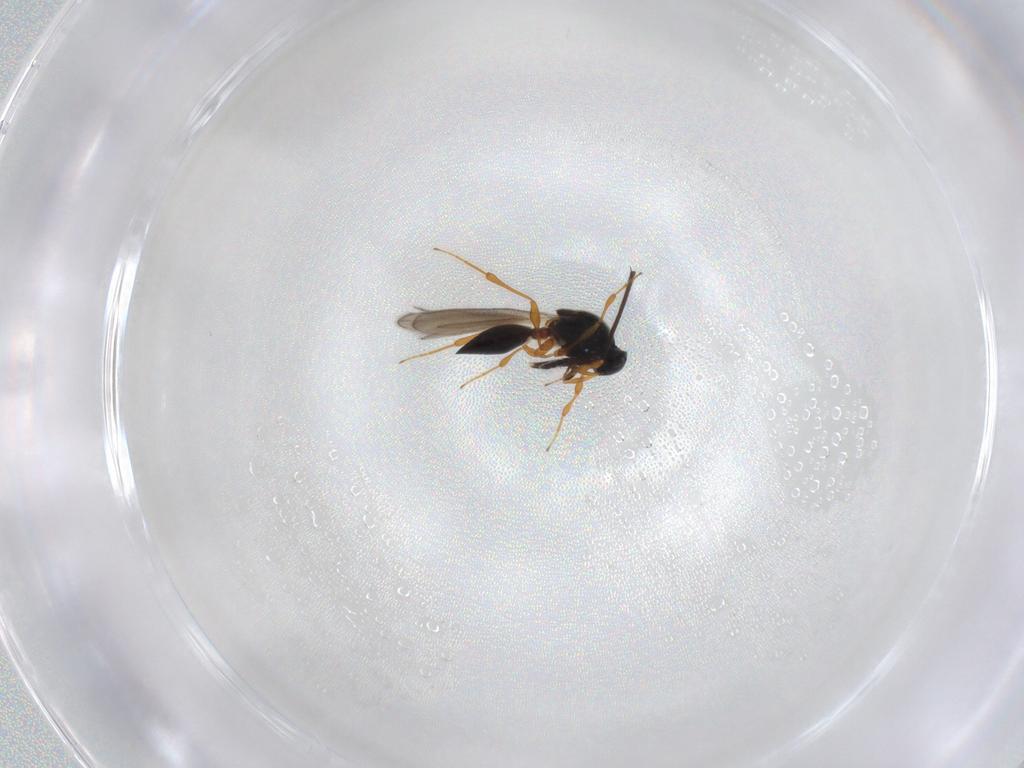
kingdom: Animalia
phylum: Arthropoda
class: Insecta
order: Hymenoptera
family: Platygastridae
